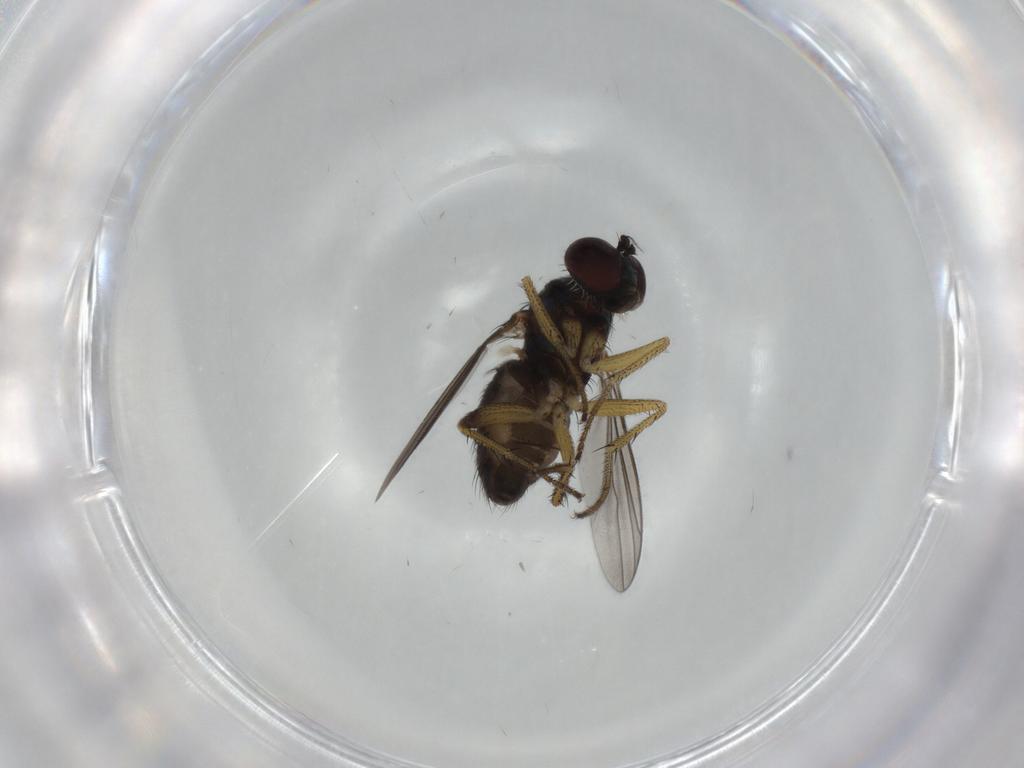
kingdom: Animalia
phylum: Arthropoda
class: Insecta
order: Diptera
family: Dolichopodidae
